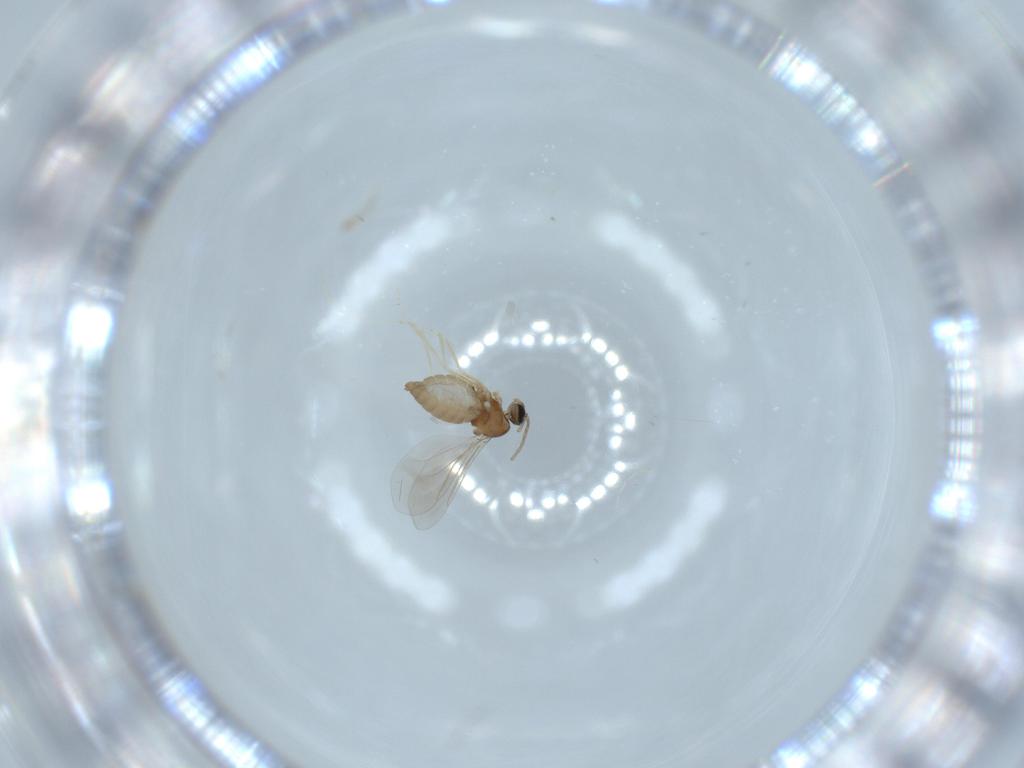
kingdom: Animalia
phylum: Arthropoda
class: Insecta
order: Diptera
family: Cecidomyiidae
